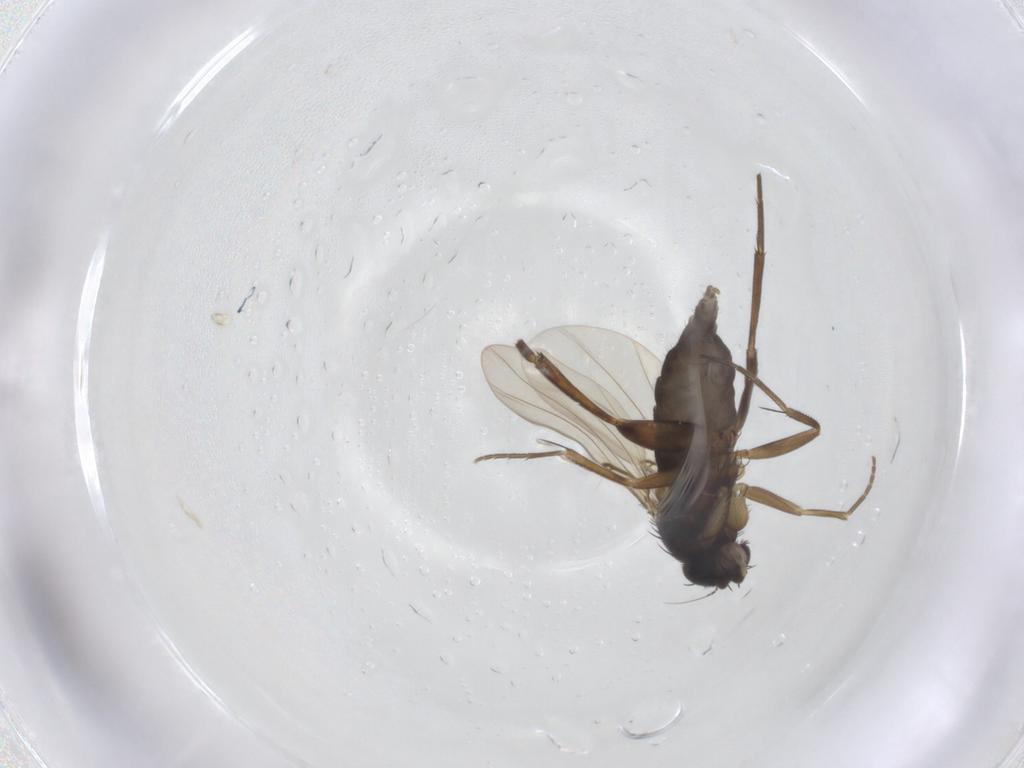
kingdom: Animalia
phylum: Arthropoda
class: Insecta
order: Diptera
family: Phoridae
